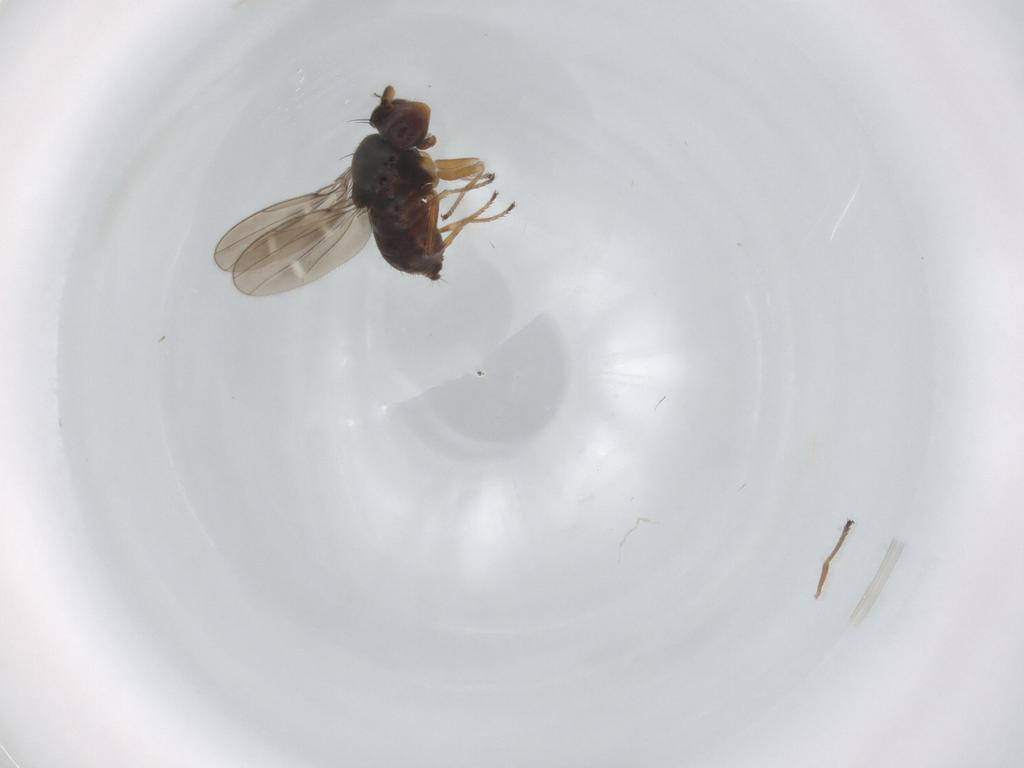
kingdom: Animalia
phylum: Arthropoda
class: Insecta
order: Diptera
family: Ephydridae
